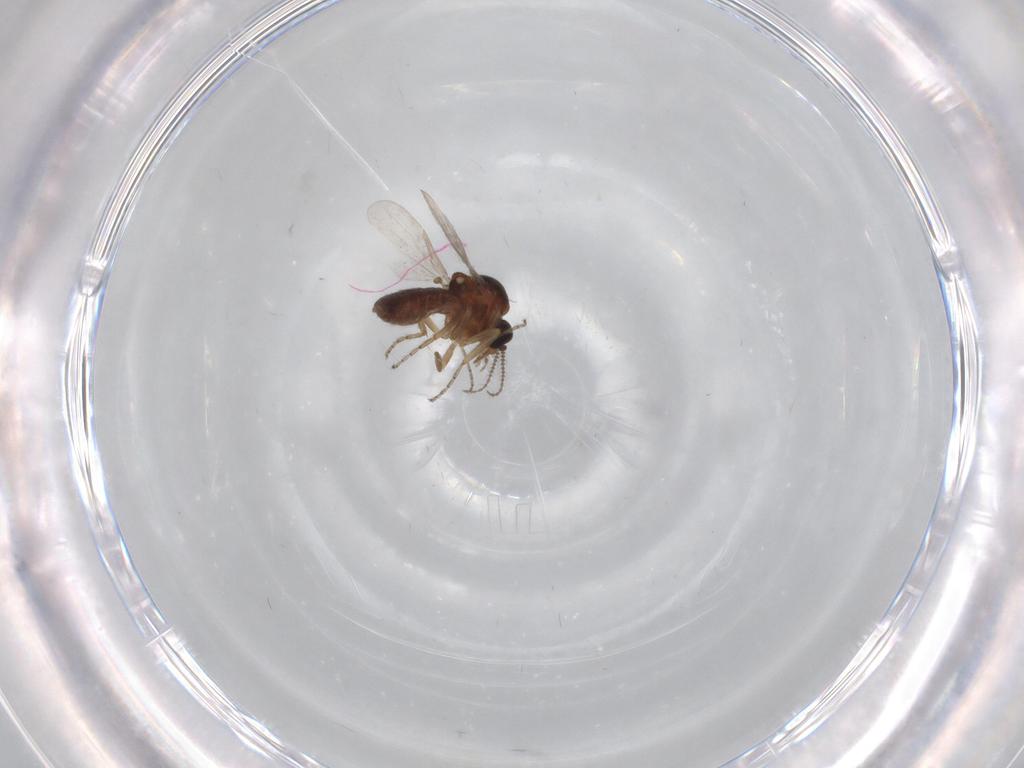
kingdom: Animalia
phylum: Arthropoda
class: Insecta
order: Diptera
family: Ceratopogonidae
